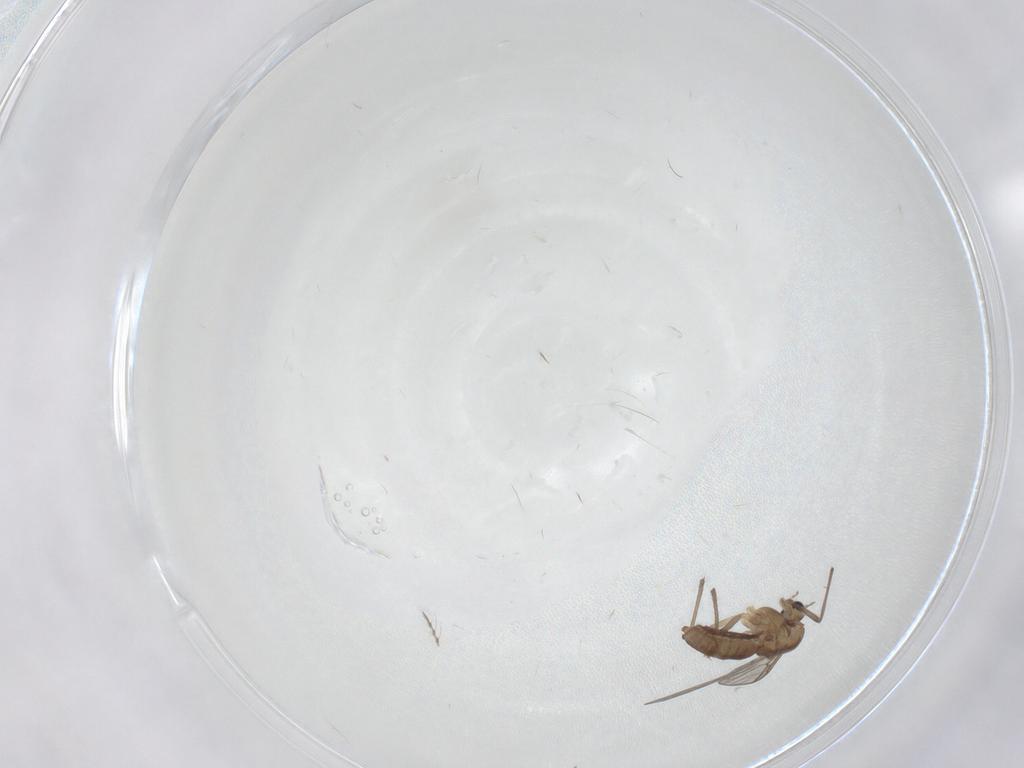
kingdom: Animalia
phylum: Arthropoda
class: Insecta
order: Diptera
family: Chironomidae
